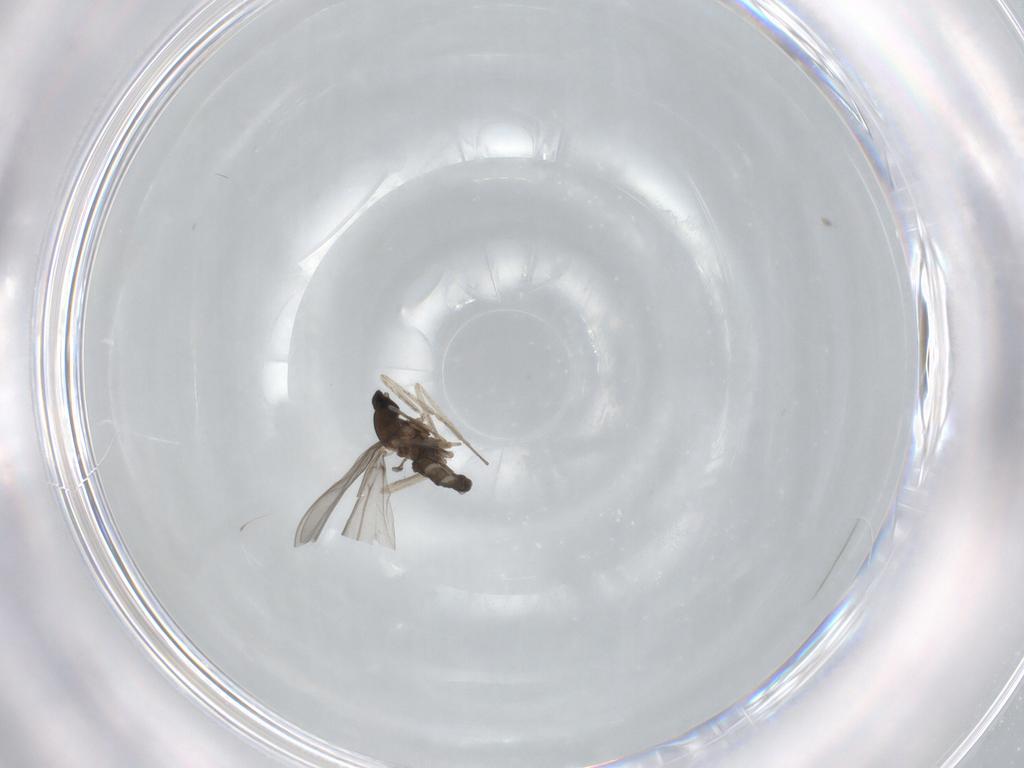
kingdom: Animalia
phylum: Arthropoda
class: Insecta
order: Diptera
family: Cecidomyiidae
